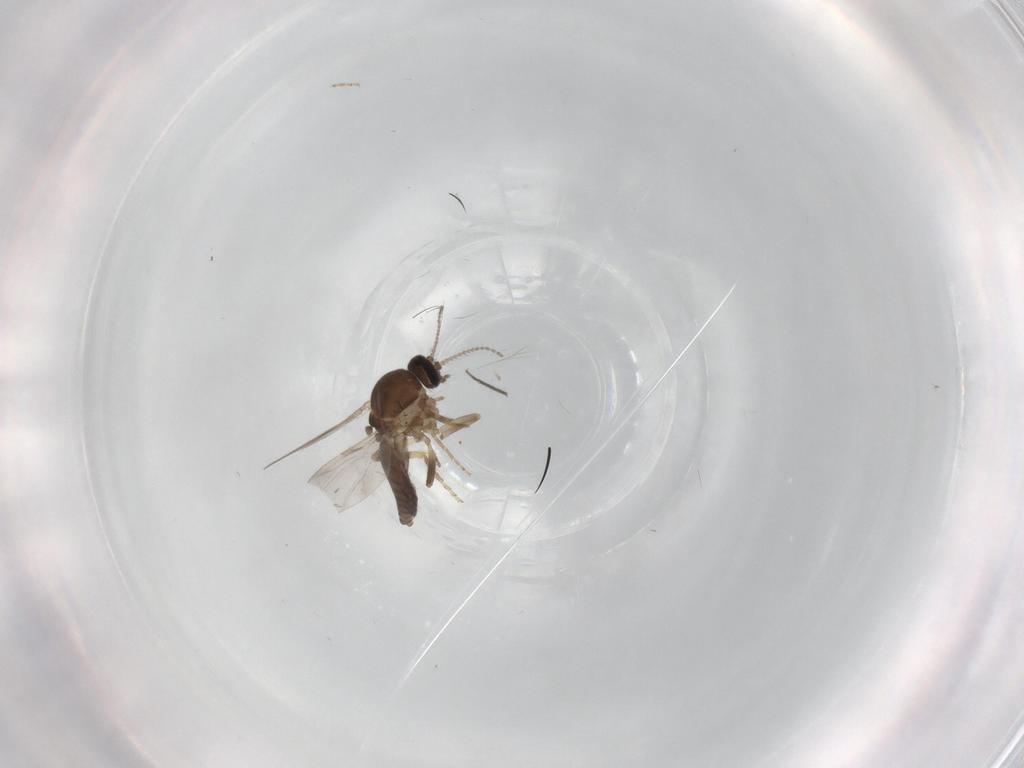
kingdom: Animalia
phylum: Arthropoda
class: Insecta
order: Diptera
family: Ceratopogonidae
